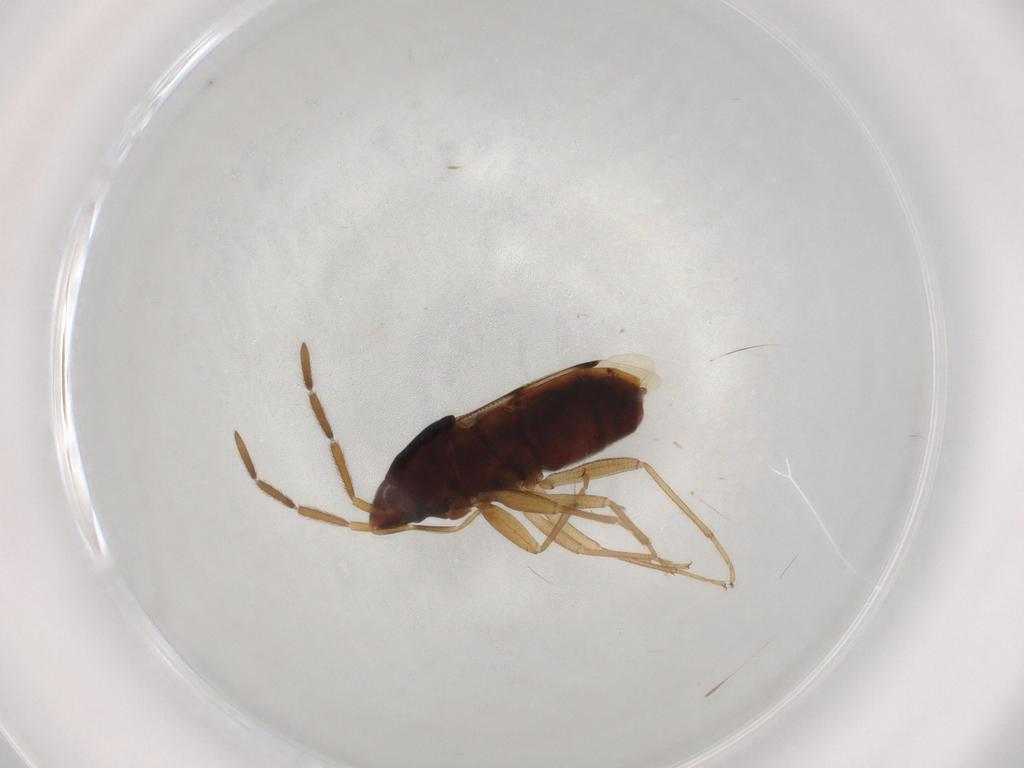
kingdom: Animalia
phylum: Arthropoda
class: Insecta
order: Hemiptera
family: Rhyparochromidae
